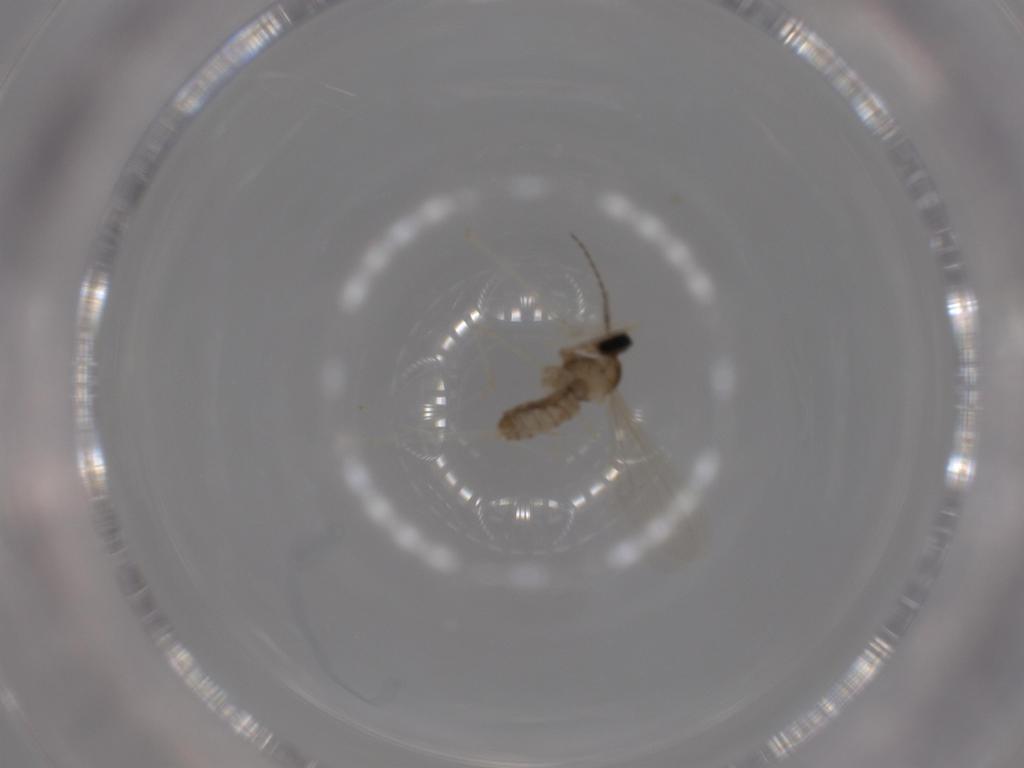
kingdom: Animalia
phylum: Arthropoda
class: Insecta
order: Diptera
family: Cecidomyiidae
